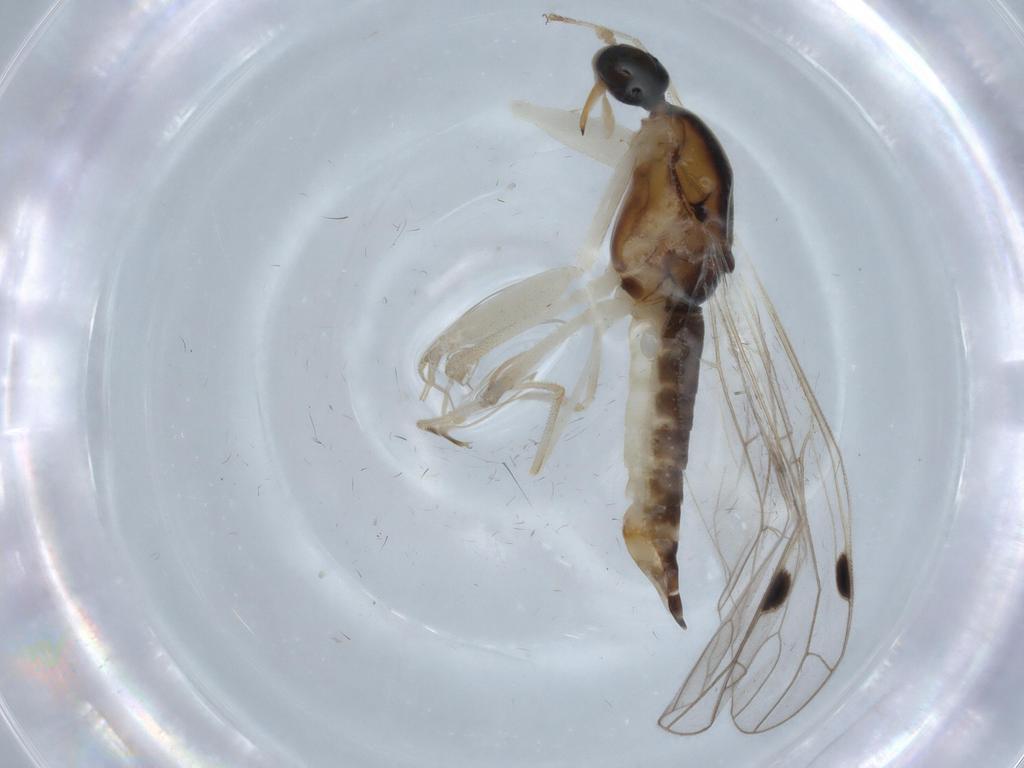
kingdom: Animalia
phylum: Arthropoda
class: Insecta
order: Diptera
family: Empididae
